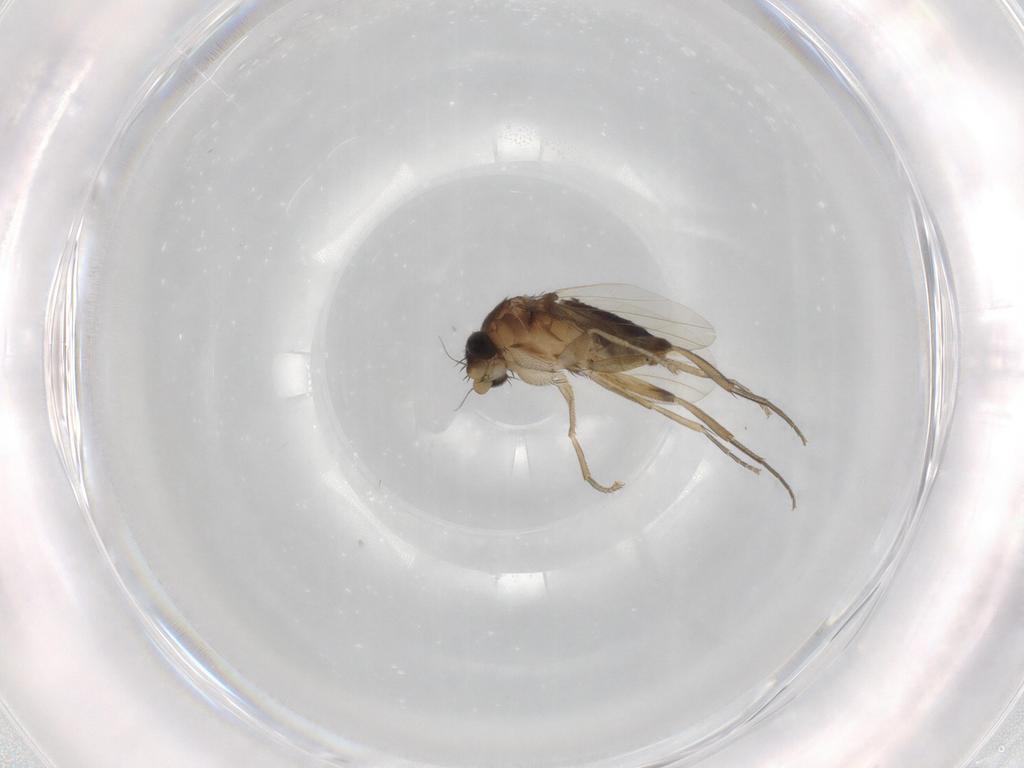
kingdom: Animalia
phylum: Arthropoda
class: Insecta
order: Diptera
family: Phoridae
